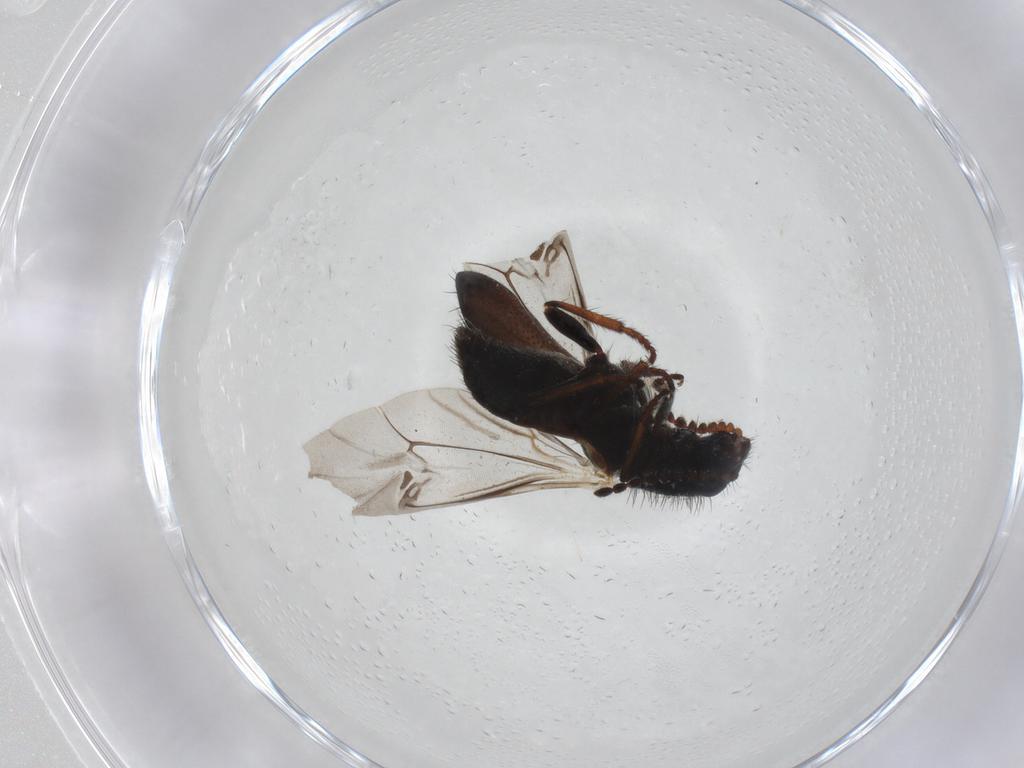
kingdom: Animalia
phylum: Arthropoda
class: Insecta
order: Coleoptera
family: Melyridae
